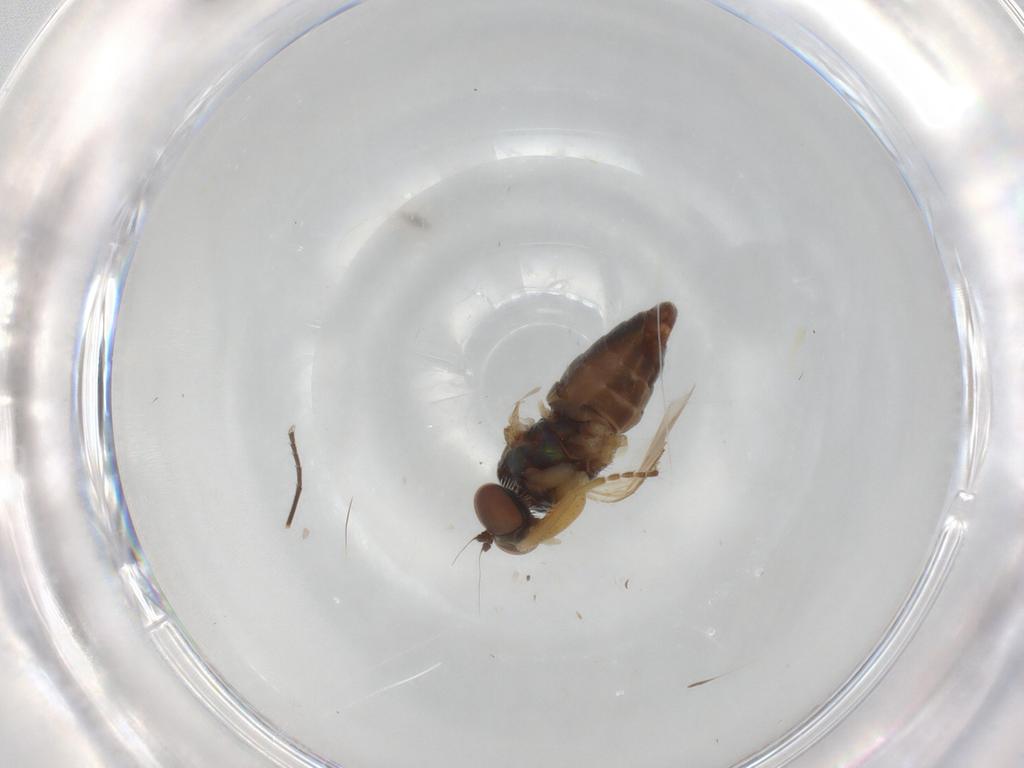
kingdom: Animalia
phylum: Arthropoda
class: Insecta
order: Diptera
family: Dolichopodidae
